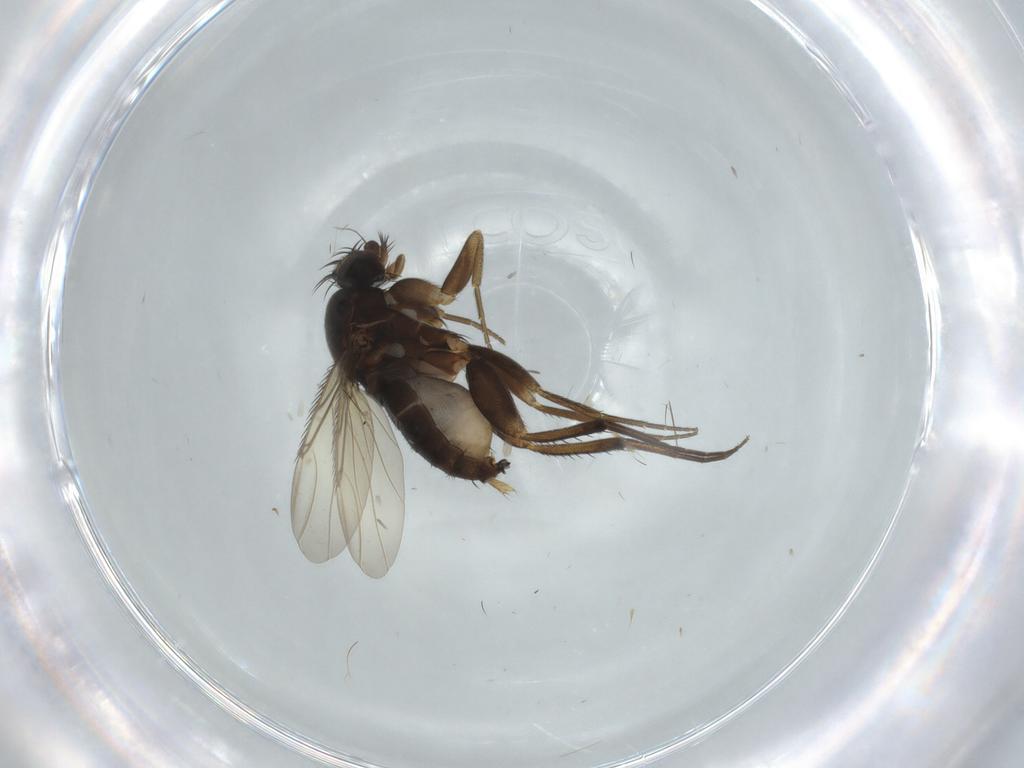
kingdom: Animalia
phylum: Arthropoda
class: Insecta
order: Diptera
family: Phoridae
